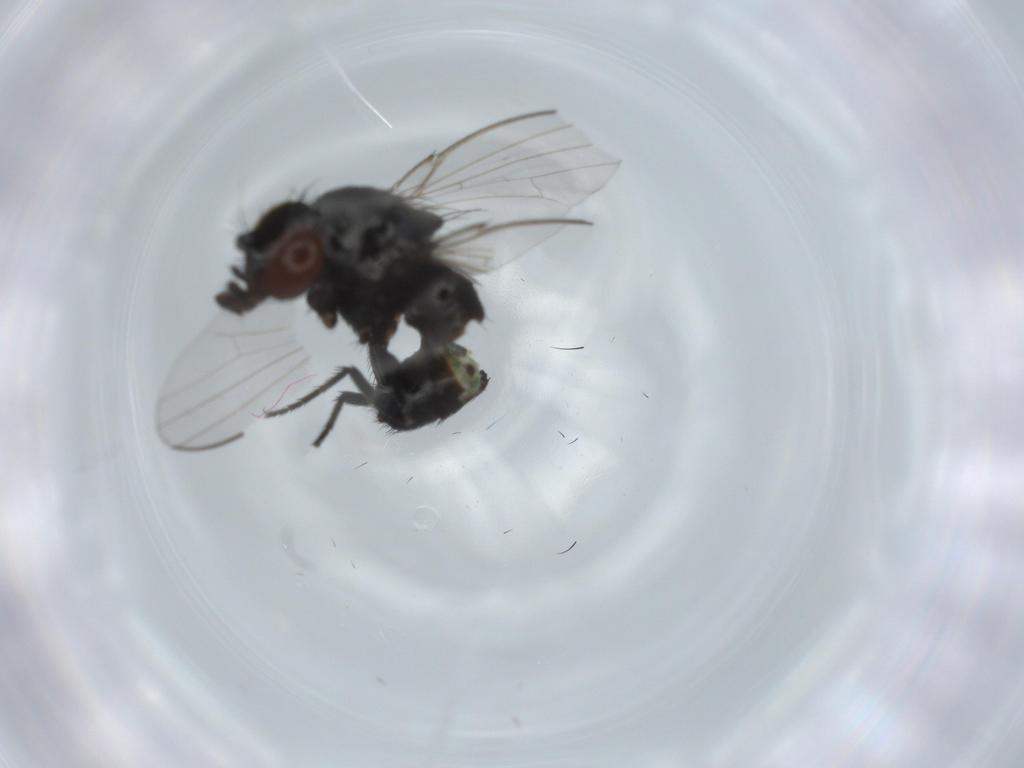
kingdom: Animalia
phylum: Arthropoda
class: Insecta
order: Diptera
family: Milichiidae
